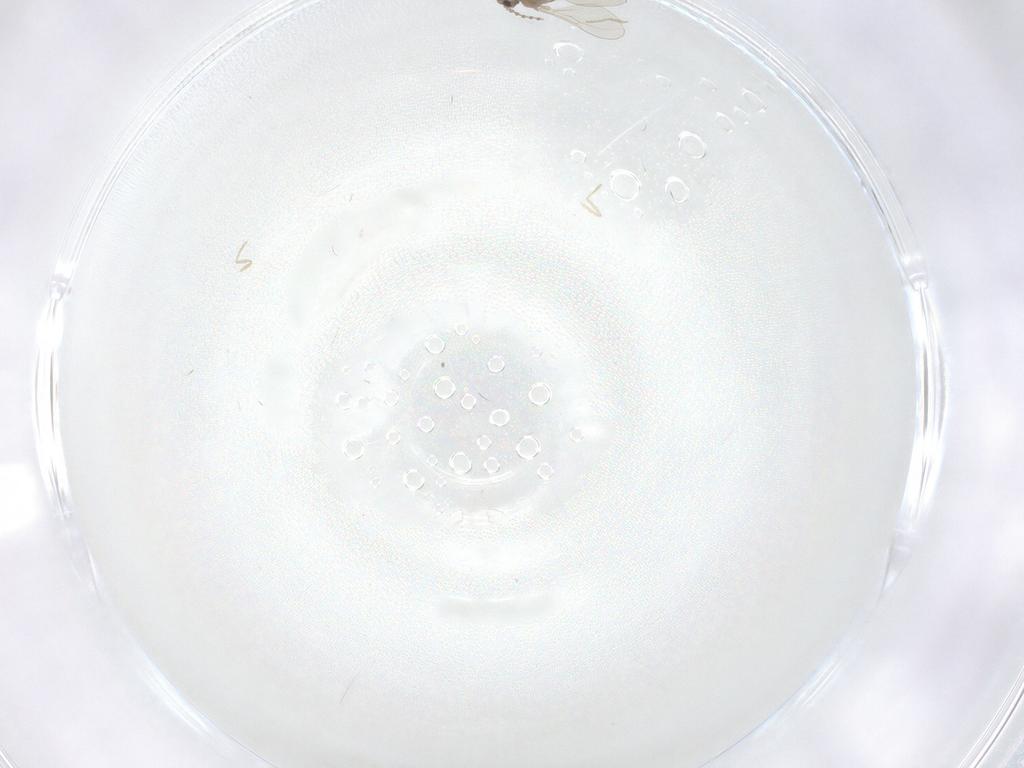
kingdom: Animalia
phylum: Arthropoda
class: Insecta
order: Diptera
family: Cecidomyiidae
